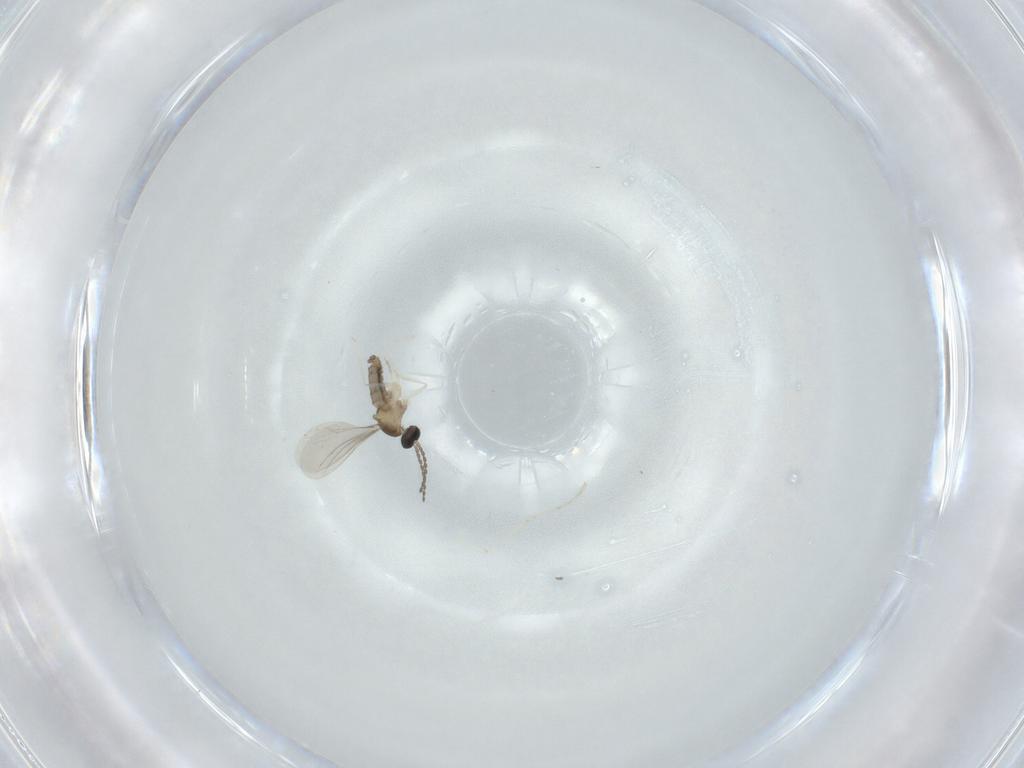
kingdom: Animalia
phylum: Arthropoda
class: Insecta
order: Diptera
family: Cecidomyiidae
